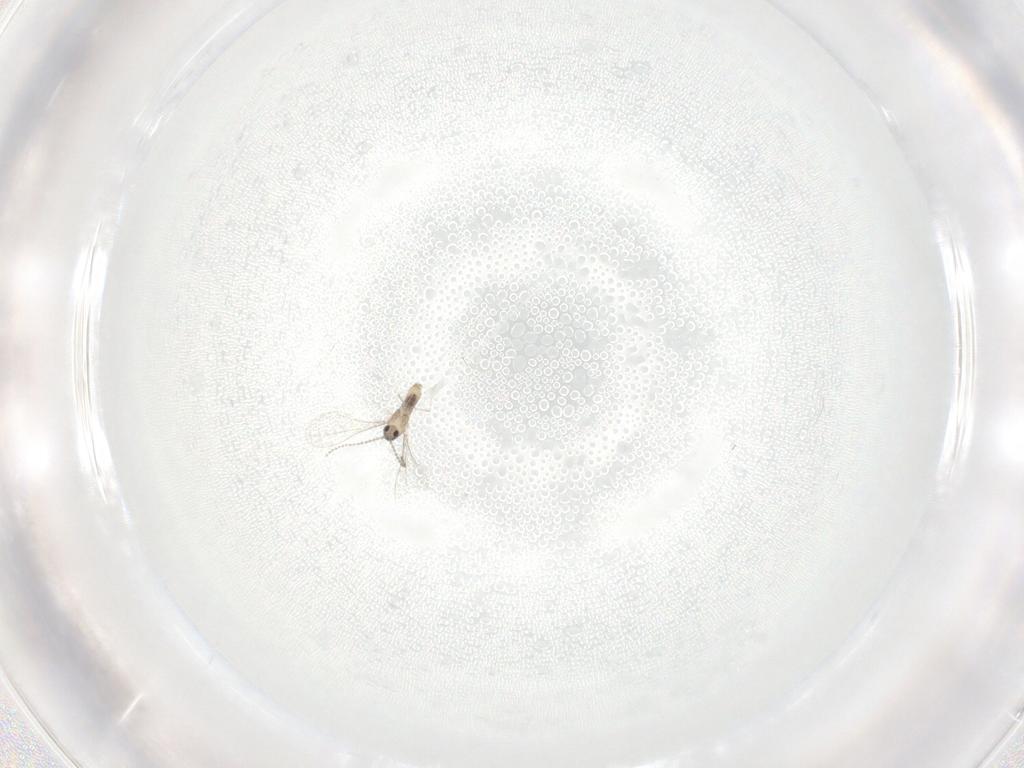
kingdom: Animalia
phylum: Arthropoda
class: Insecta
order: Diptera
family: Cecidomyiidae
